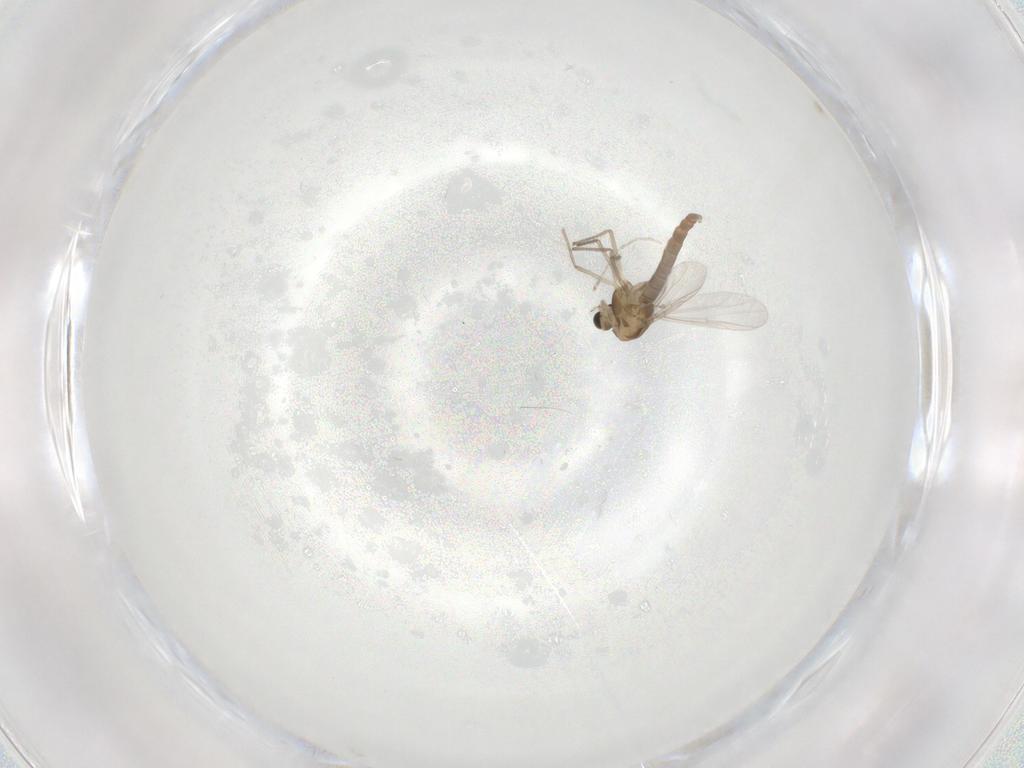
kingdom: Animalia
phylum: Arthropoda
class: Insecta
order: Diptera
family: Chironomidae
